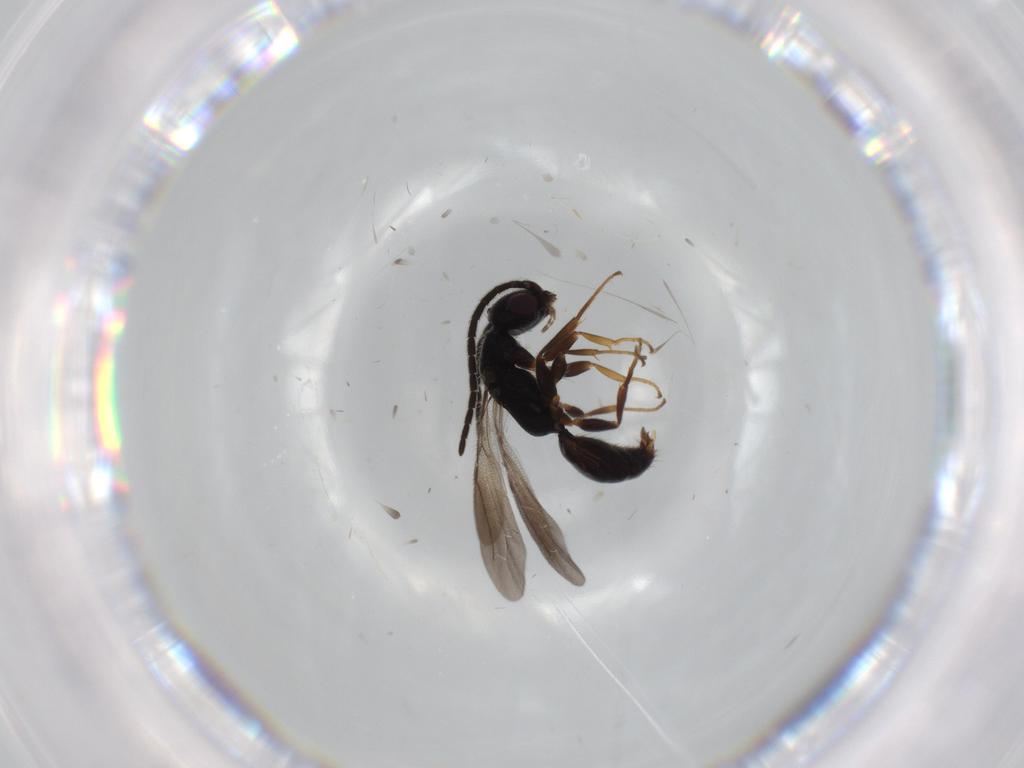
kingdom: Animalia
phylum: Arthropoda
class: Insecta
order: Hymenoptera
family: Bethylidae
